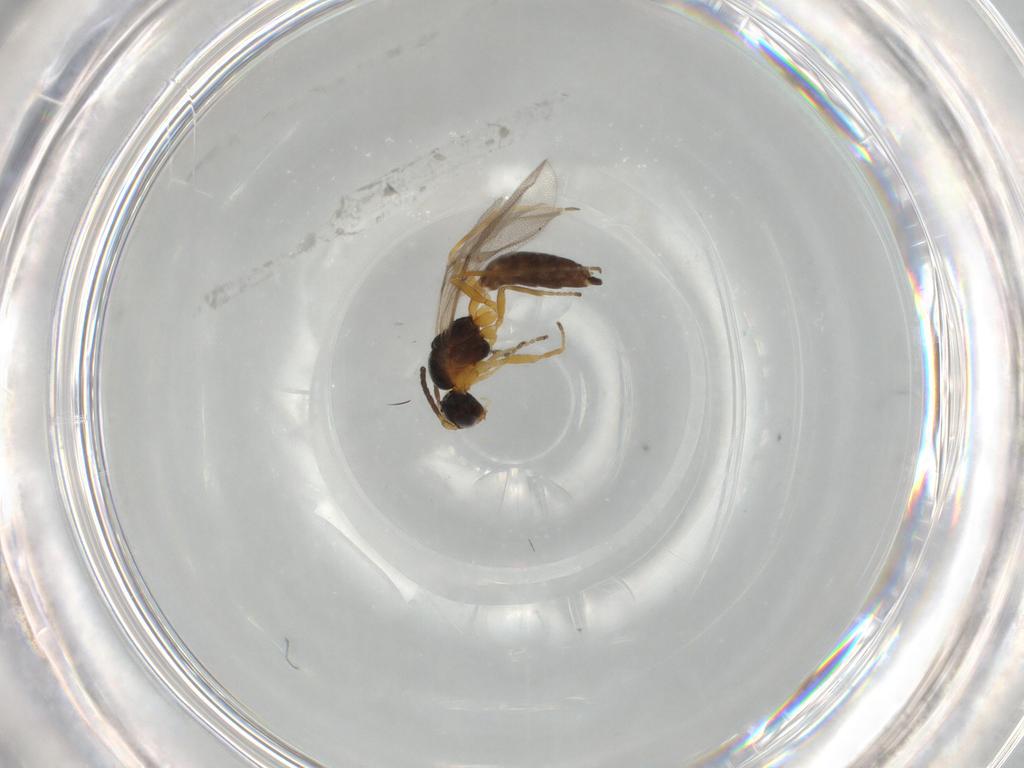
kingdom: Animalia
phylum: Arthropoda
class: Insecta
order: Hymenoptera
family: Braconidae
